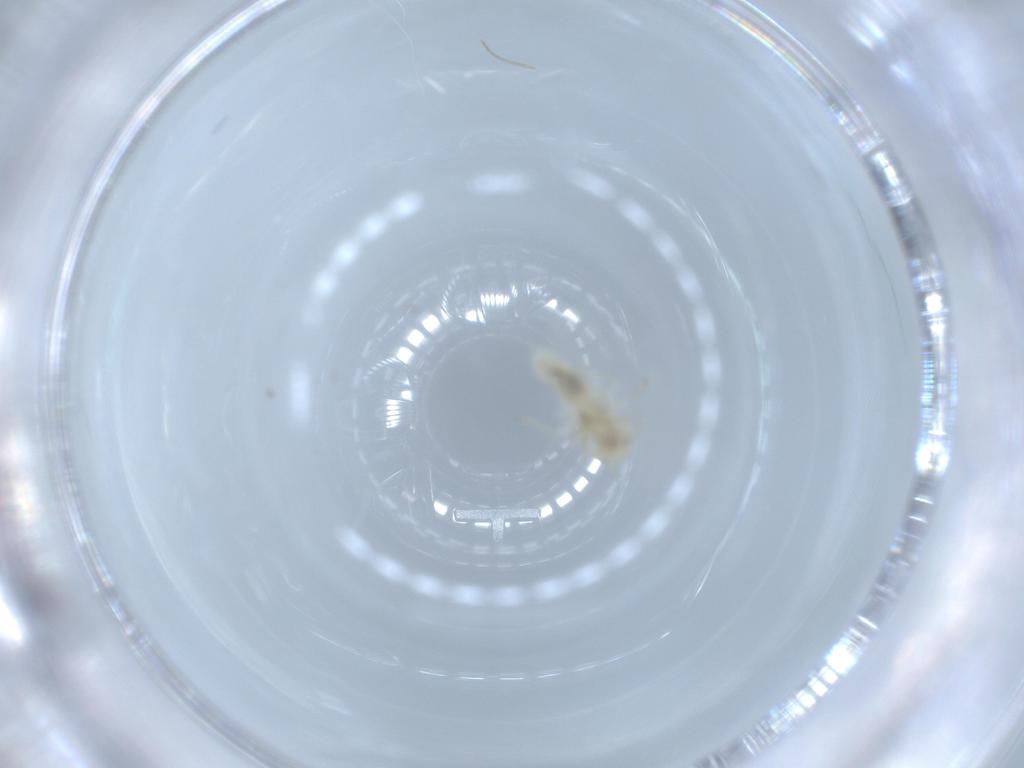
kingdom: Animalia
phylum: Arthropoda
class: Insecta
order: Psocodea
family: Caeciliusidae
